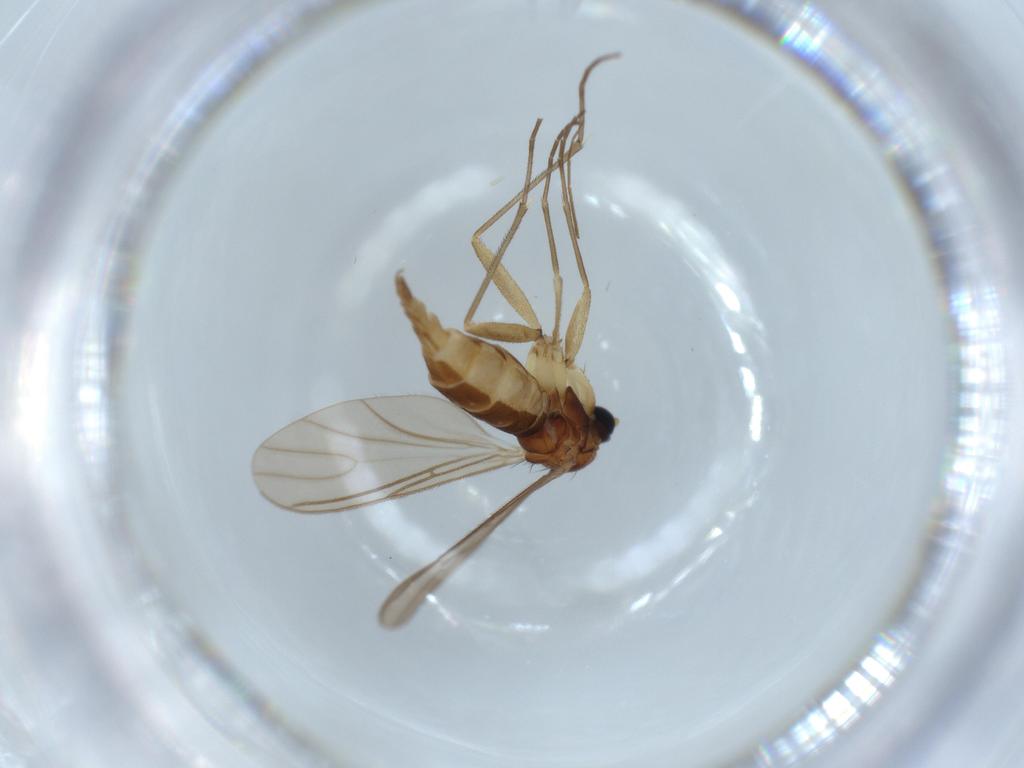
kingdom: Animalia
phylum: Arthropoda
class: Insecta
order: Diptera
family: Sciaridae
